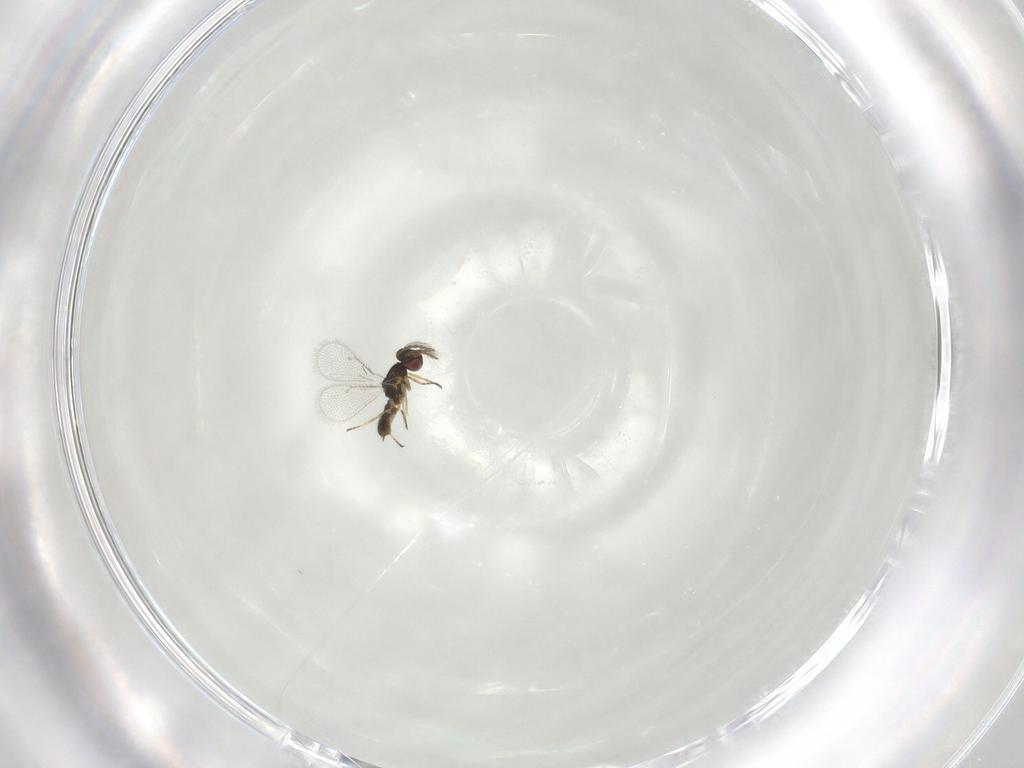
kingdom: Animalia
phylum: Arthropoda
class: Insecta
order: Hymenoptera
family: Eulophidae
